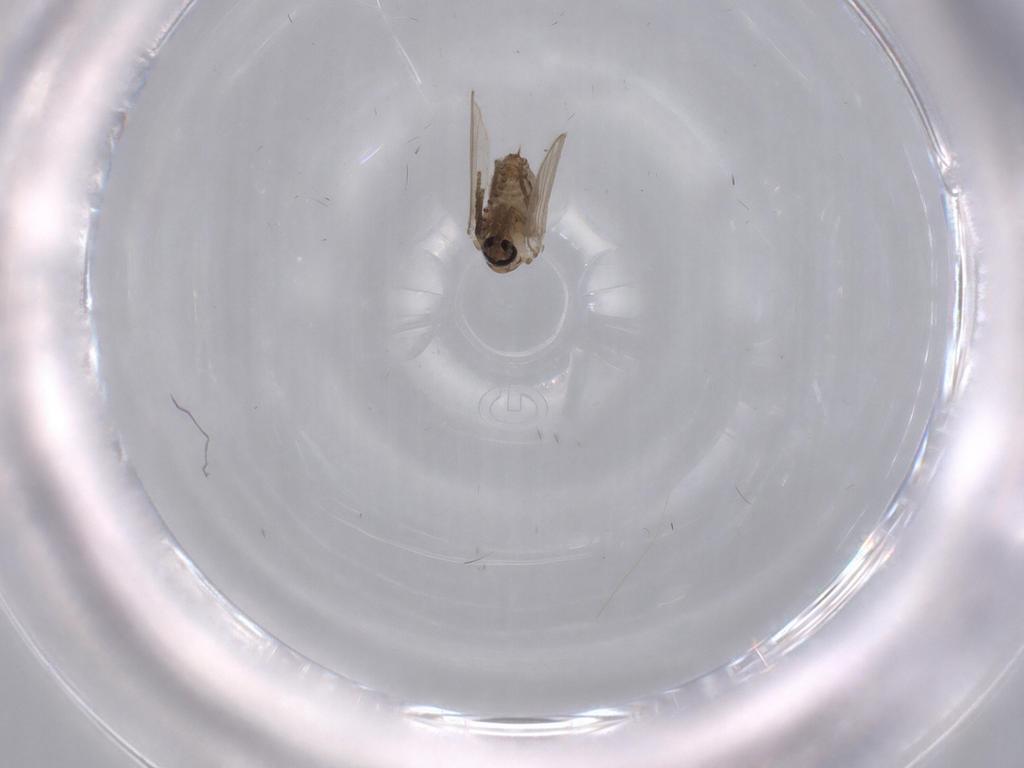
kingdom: Animalia
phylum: Arthropoda
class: Insecta
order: Diptera
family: Psychodidae
